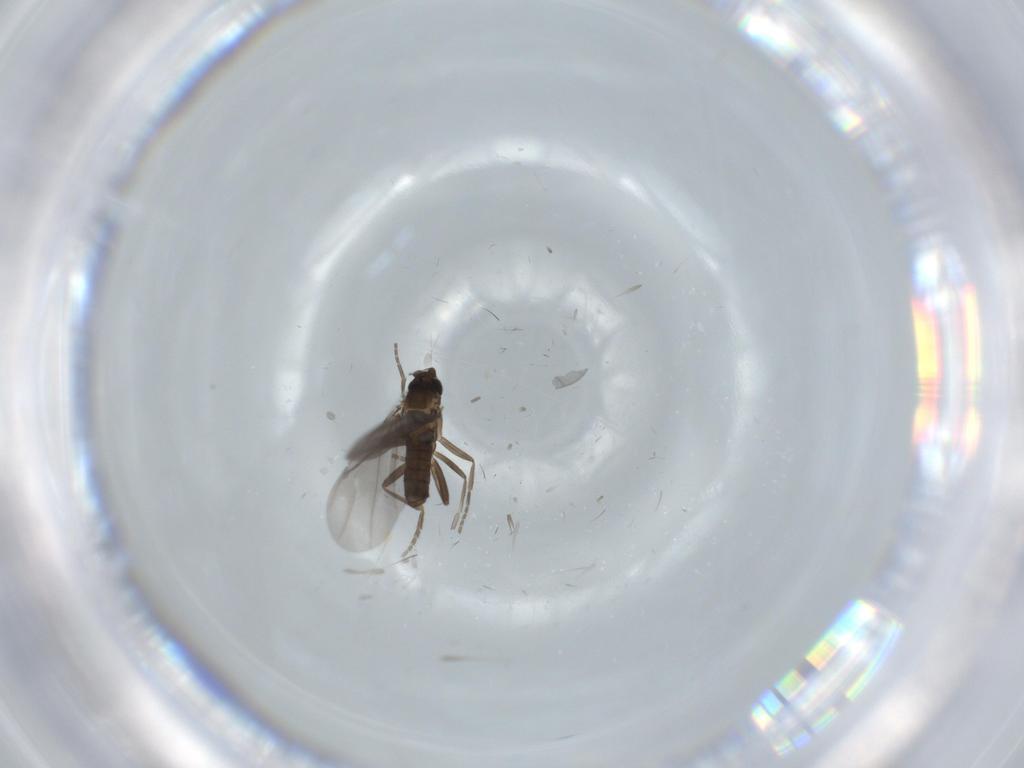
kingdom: Animalia
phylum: Arthropoda
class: Insecta
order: Diptera
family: Phoridae
